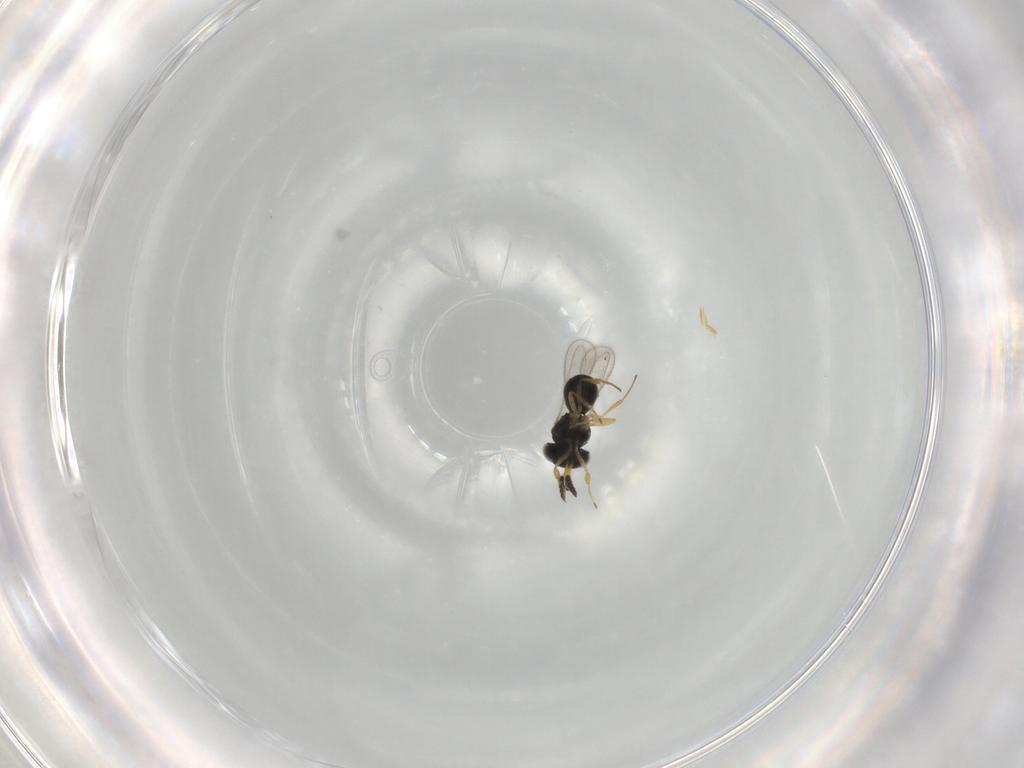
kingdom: Animalia
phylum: Arthropoda
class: Insecta
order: Hymenoptera
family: Scelionidae
